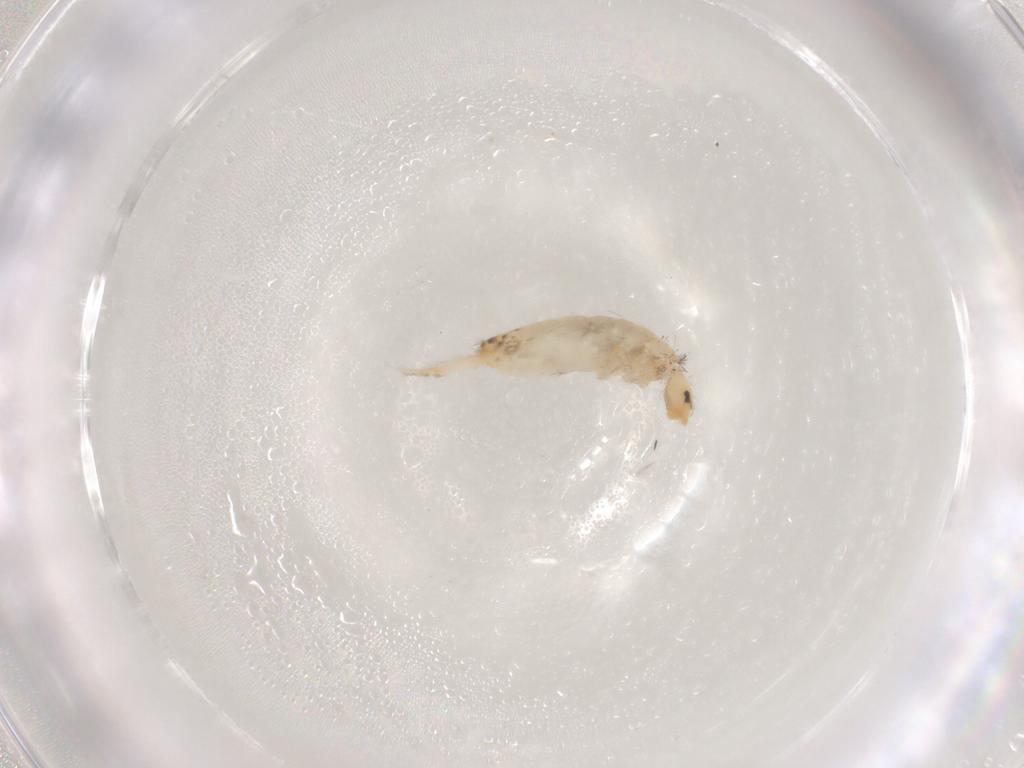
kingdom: Animalia
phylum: Arthropoda
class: Collembola
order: Entomobryomorpha
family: Entomobryidae
